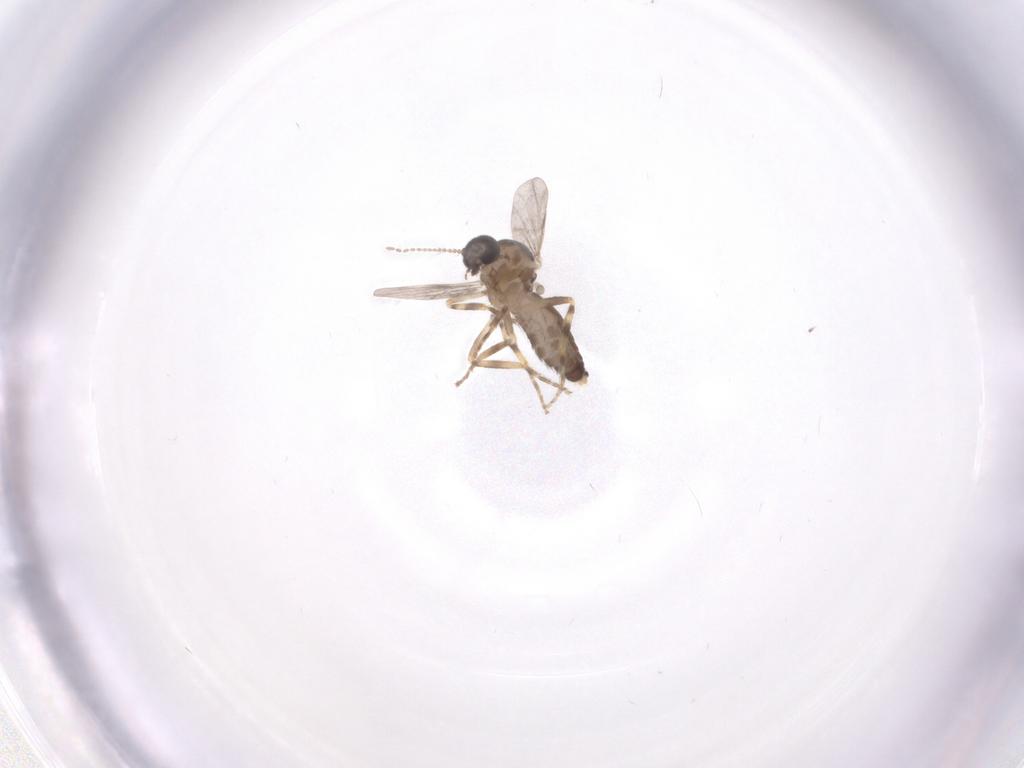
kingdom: Animalia
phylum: Arthropoda
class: Insecta
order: Diptera
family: Ceratopogonidae
